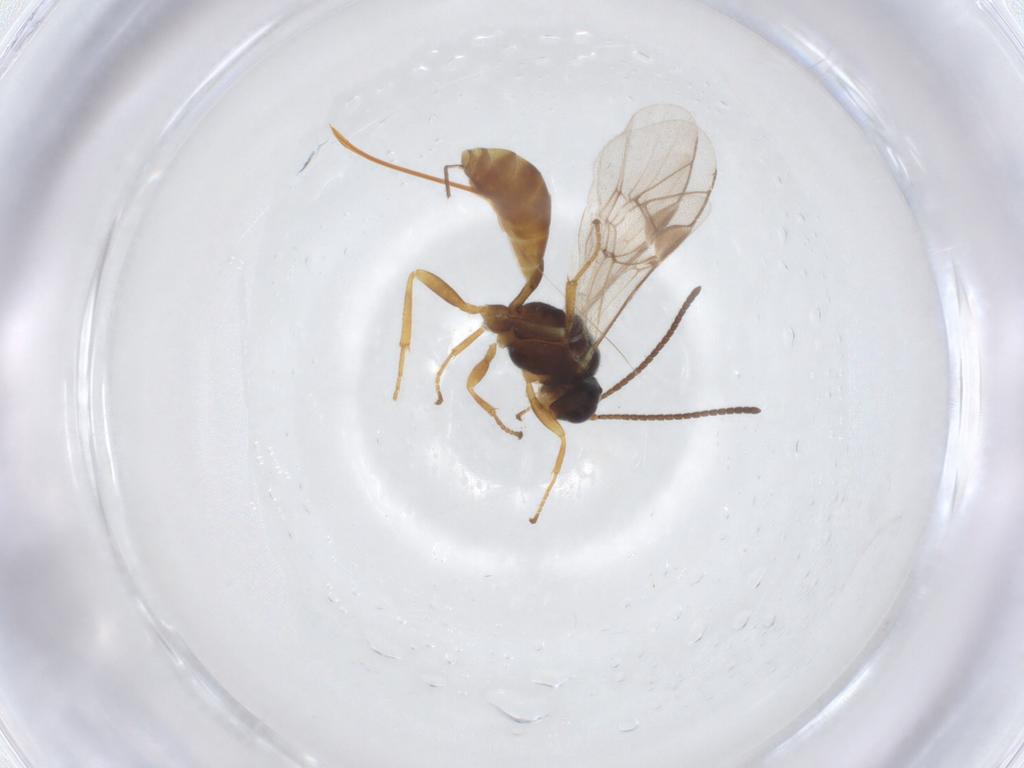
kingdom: Animalia
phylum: Arthropoda
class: Insecta
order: Hymenoptera
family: Ichneumonidae
